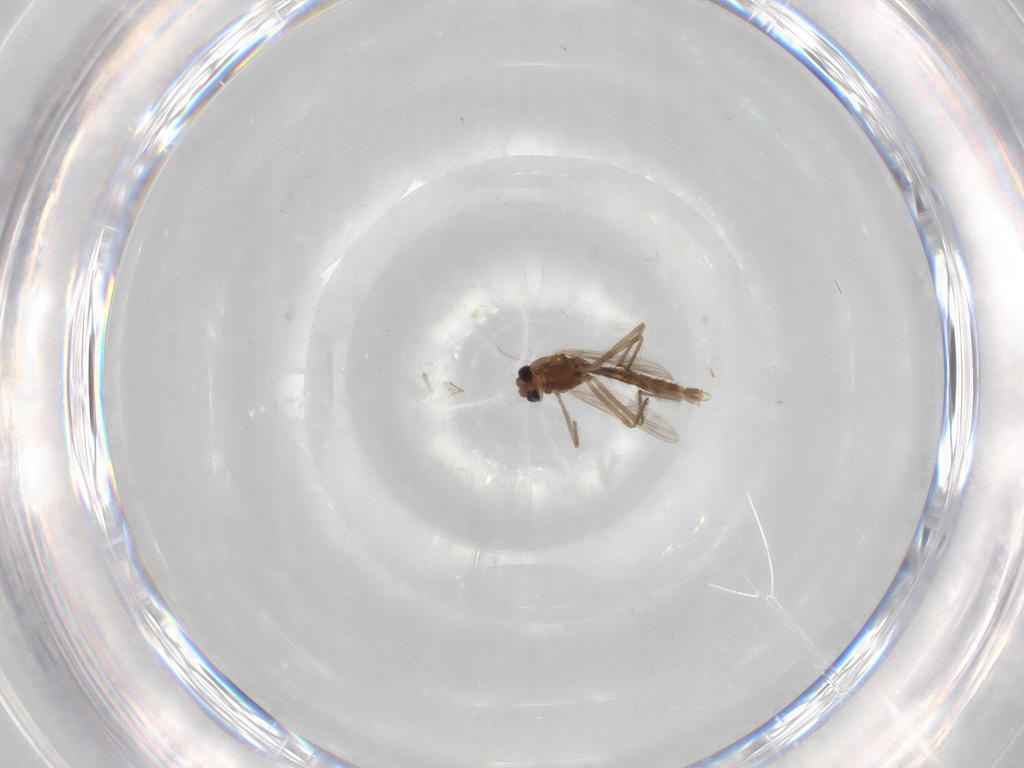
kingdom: Animalia
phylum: Arthropoda
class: Insecta
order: Diptera
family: Chironomidae
